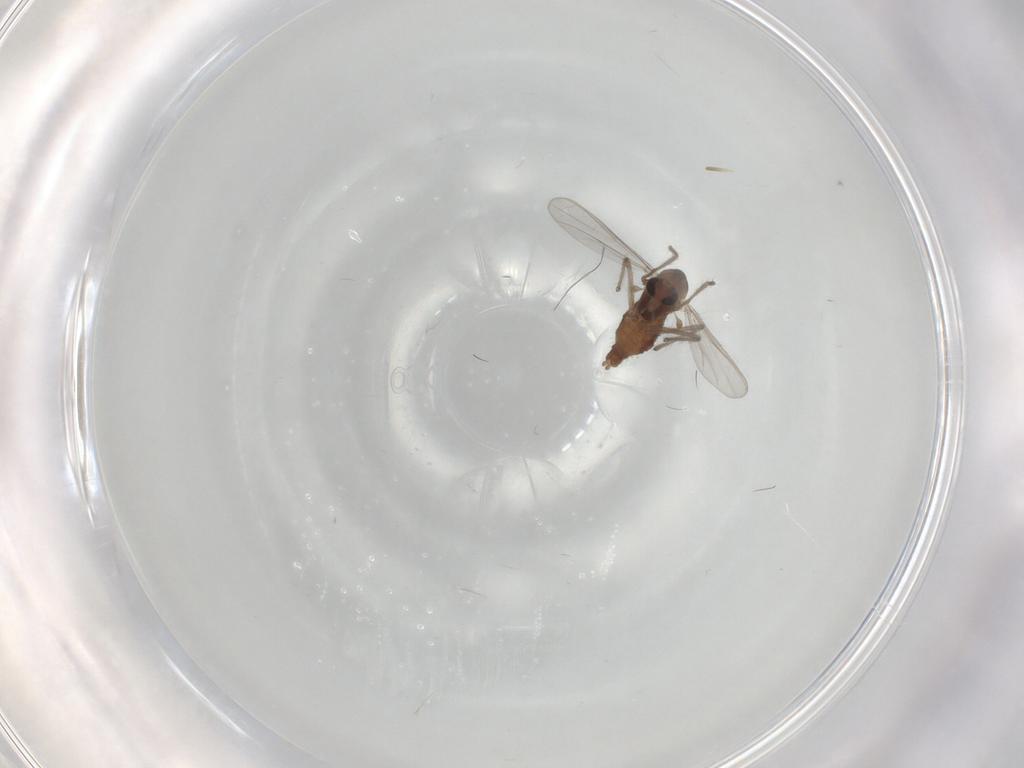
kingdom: Animalia
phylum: Arthropoda
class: Insecta
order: Diptera
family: Chironomidae
